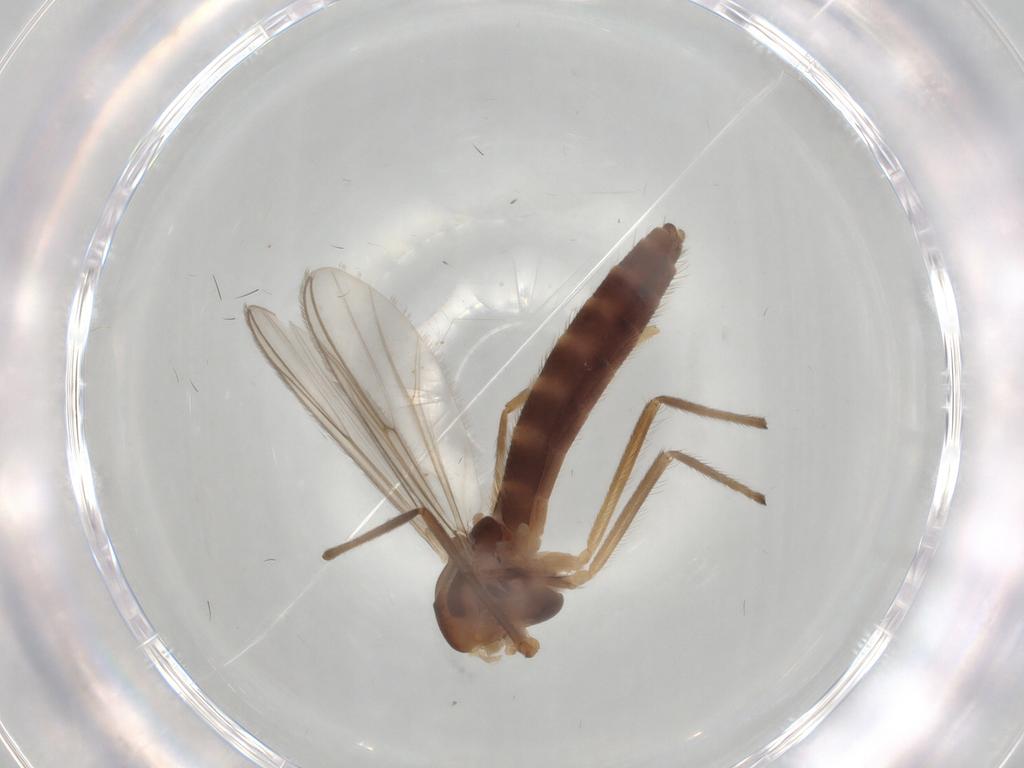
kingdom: Animalia
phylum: Arthropoda
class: Insecta
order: Diptera
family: Chironomidae
